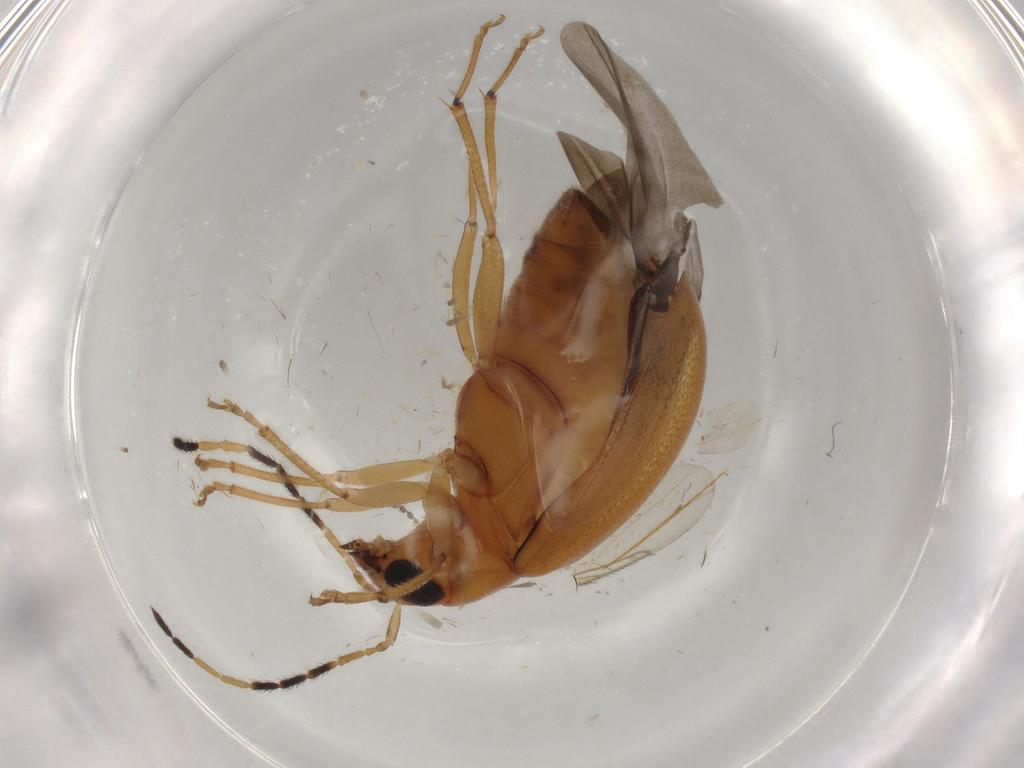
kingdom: Animalia
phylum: Arthropoda
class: Insecta
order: Coleoptera
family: Chrysomelidae
